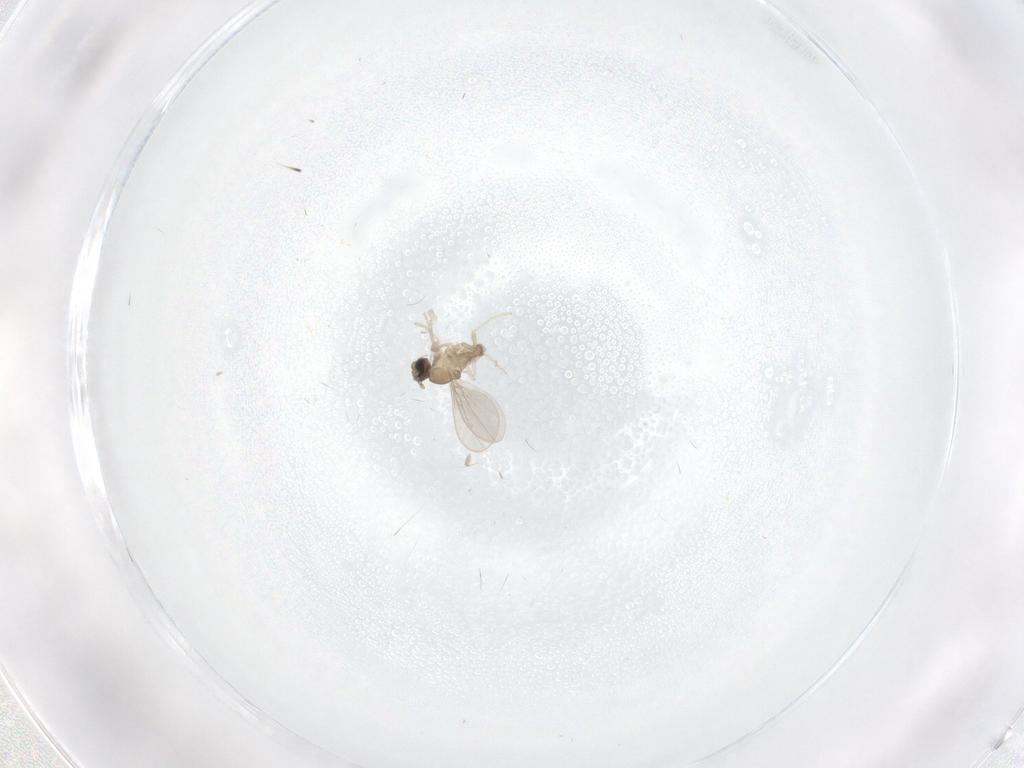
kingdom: Animalia
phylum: Arthropoda
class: Insecta
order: Diptera
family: Cecidomyiidae
